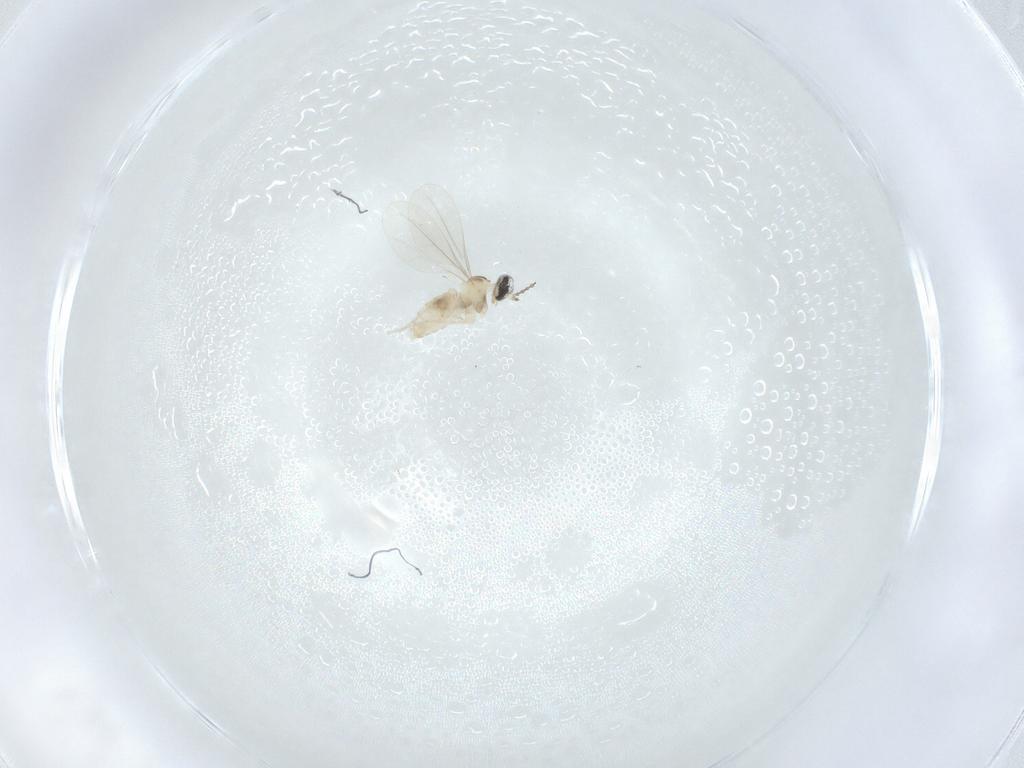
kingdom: Animalia
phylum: Arthropoda
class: Insecta
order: Diptera
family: Cecidomyiidae
